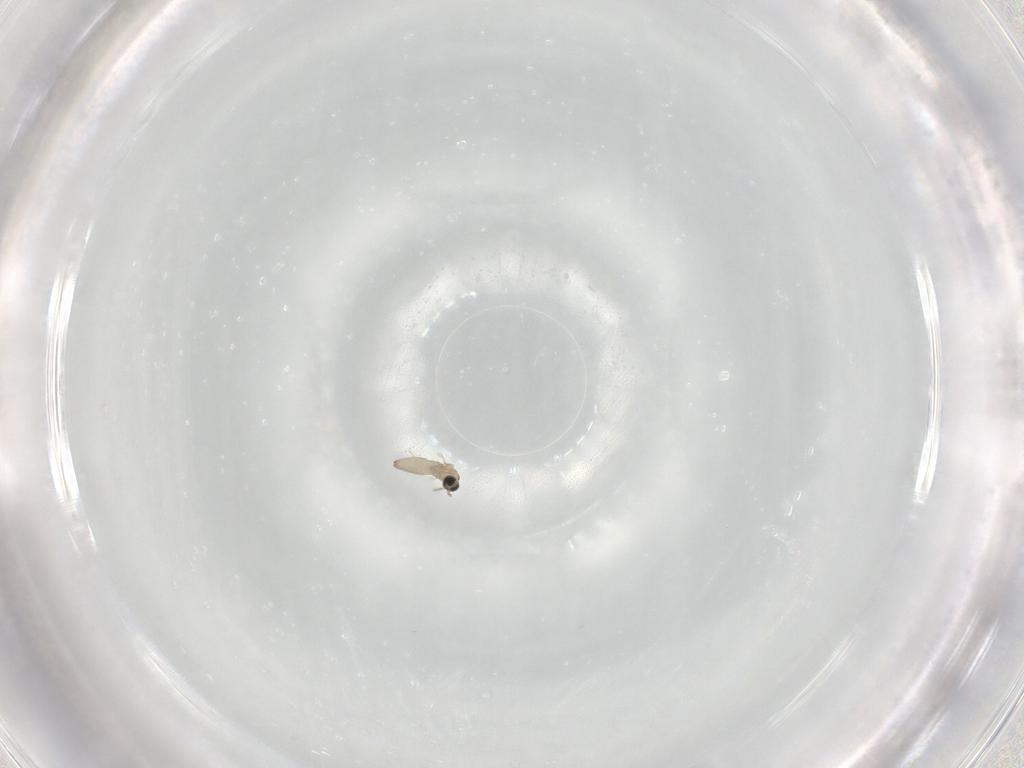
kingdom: Animalia
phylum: Arthropoda
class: Insecta
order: Diptera
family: Cecidomyiidae
